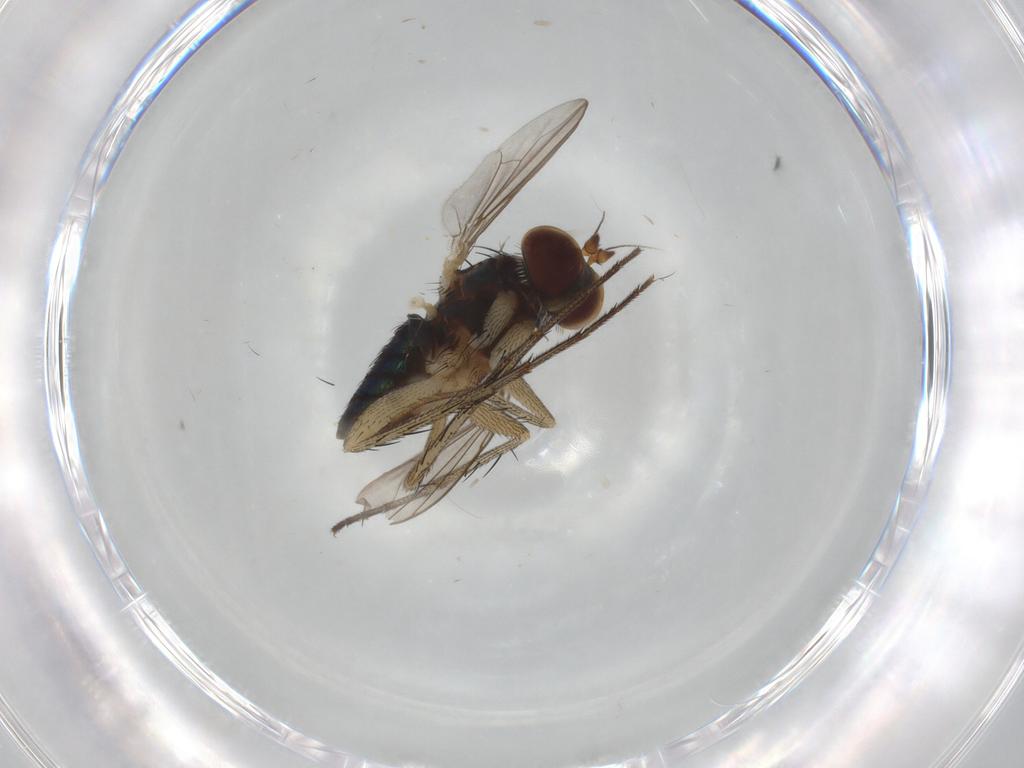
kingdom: Animalia
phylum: Arthropoda
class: Insecta
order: Diptera
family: Dolichopodidae
